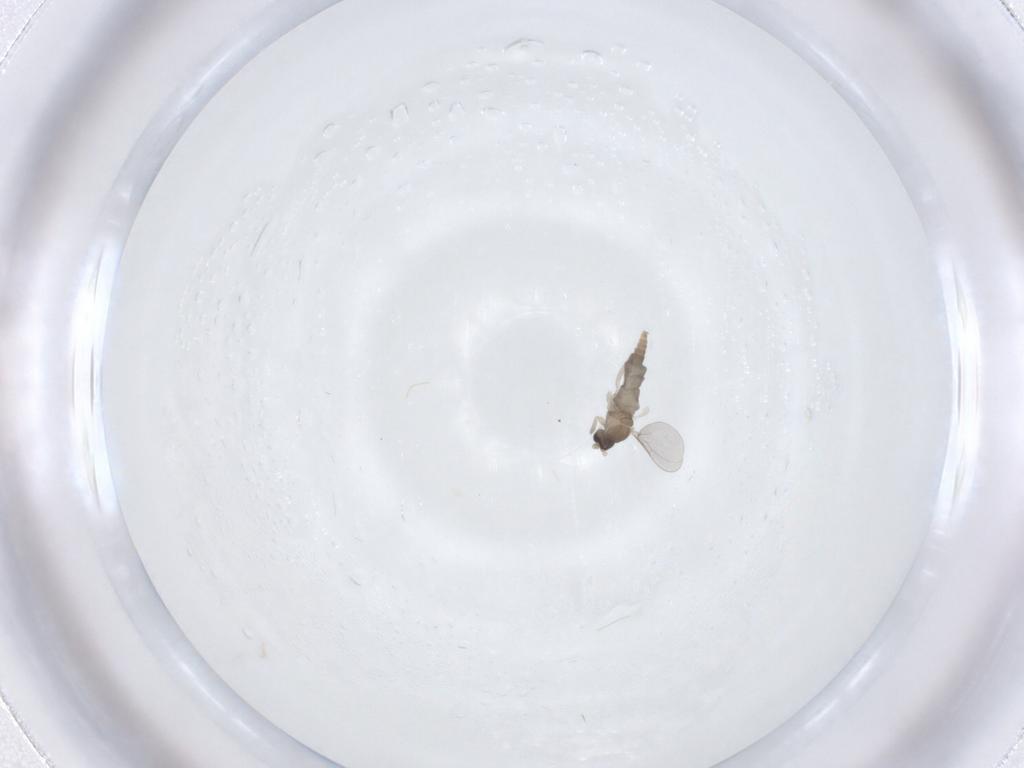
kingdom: Animalia
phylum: Arthropoda
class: Insecta
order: Diptera
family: Cecidomyiidae
